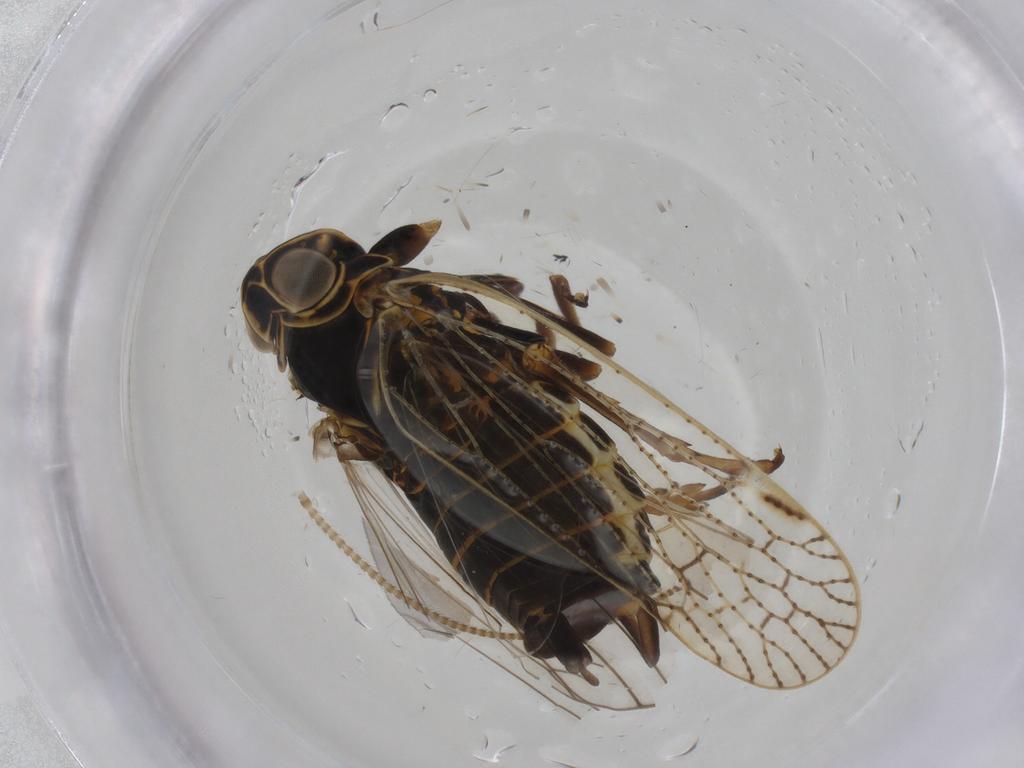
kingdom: Animalia
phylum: Arthropoda
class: Insecta
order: Hemiptera
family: Cixiidae
